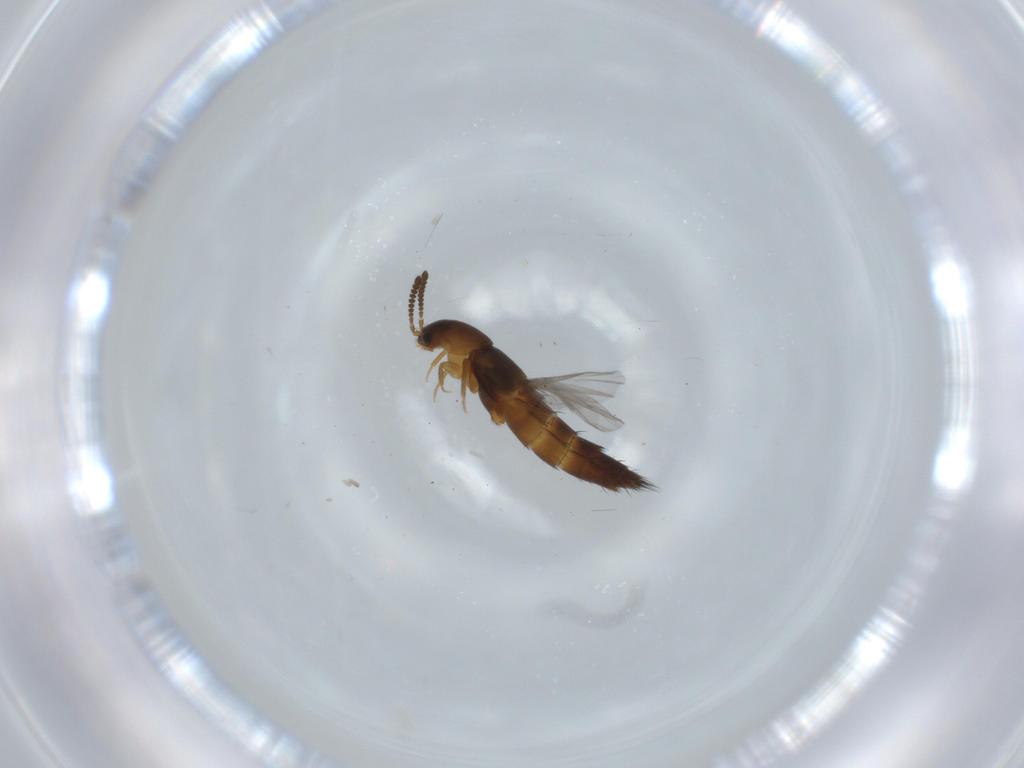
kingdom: Animalia
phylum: Arthropoda
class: Insecta
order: Coleoptera
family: Staphylinidae
